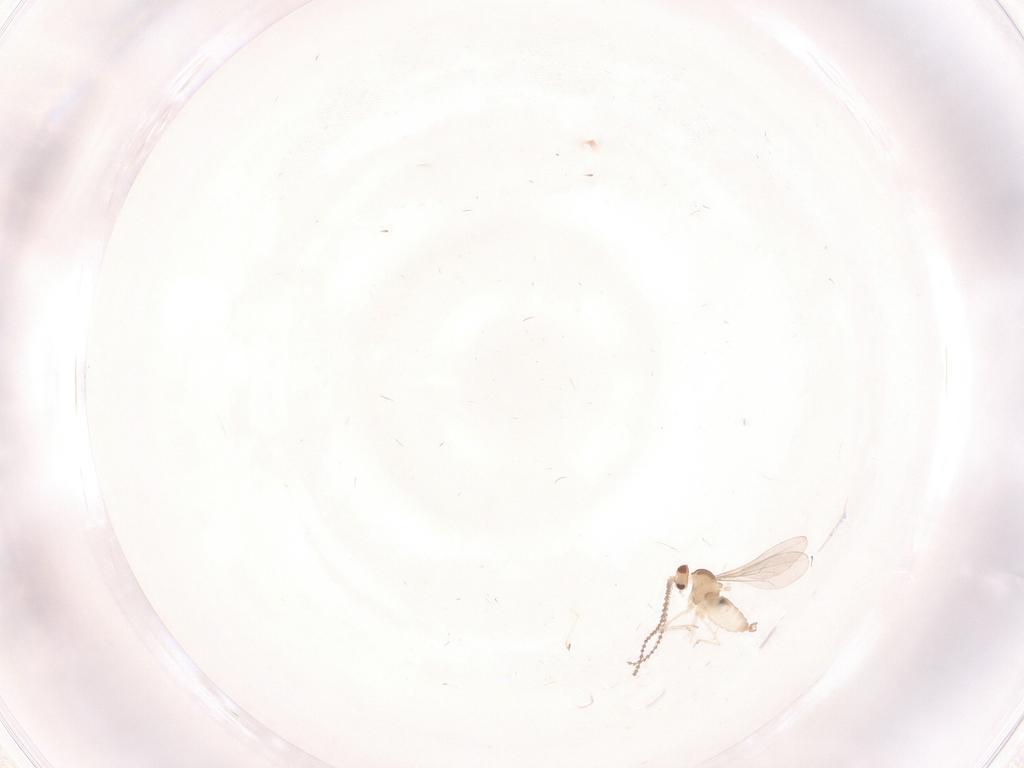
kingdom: Animalia
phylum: Arthropoda
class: Insecta
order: Diptera
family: Cecidomyiidae
